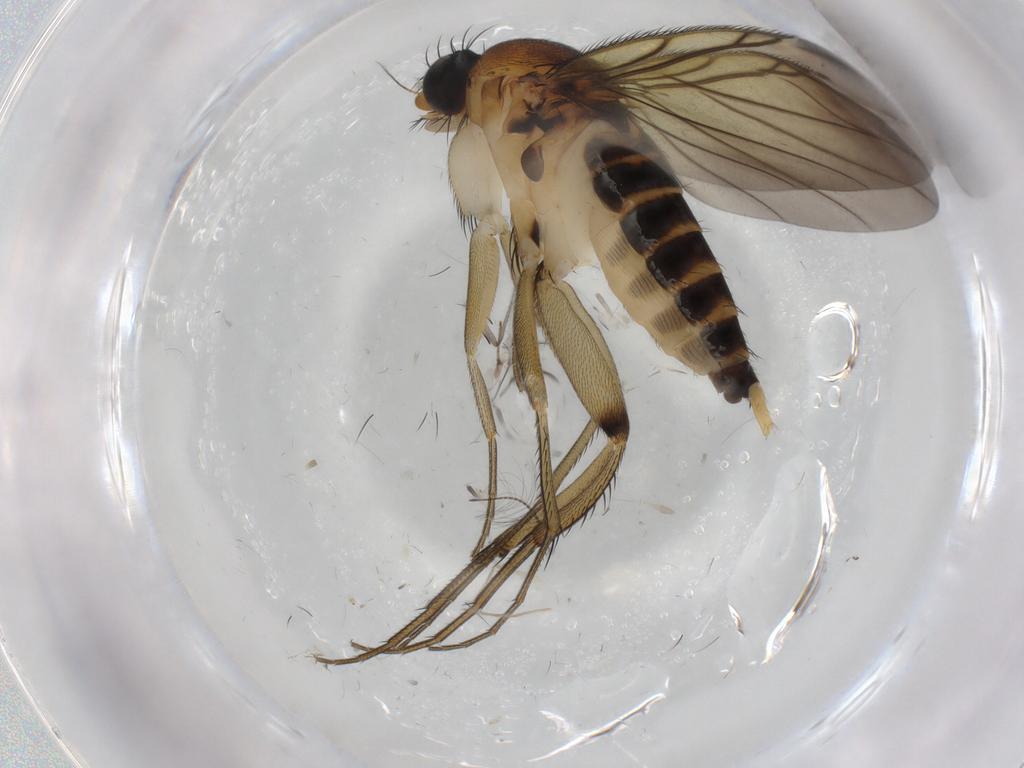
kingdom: Animalia
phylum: Arthropoda
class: Insecta
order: Diptera
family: Phoridae
